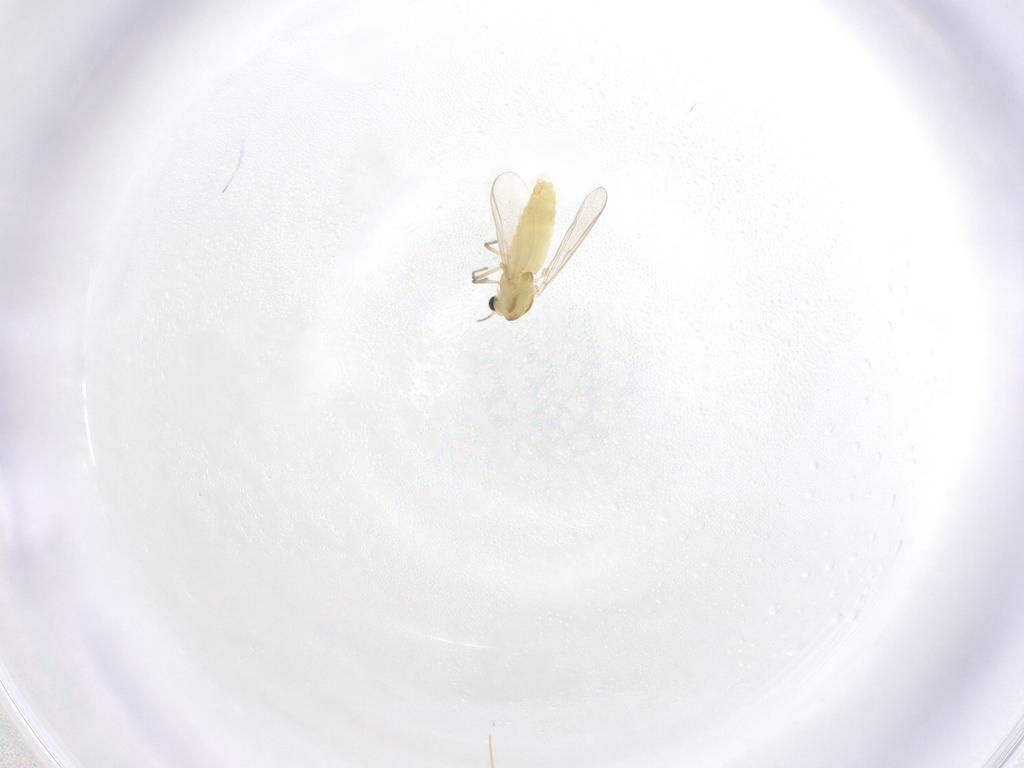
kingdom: Animalia
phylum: Arthropoda
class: Insecta
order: Diptera
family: Chironomidae
